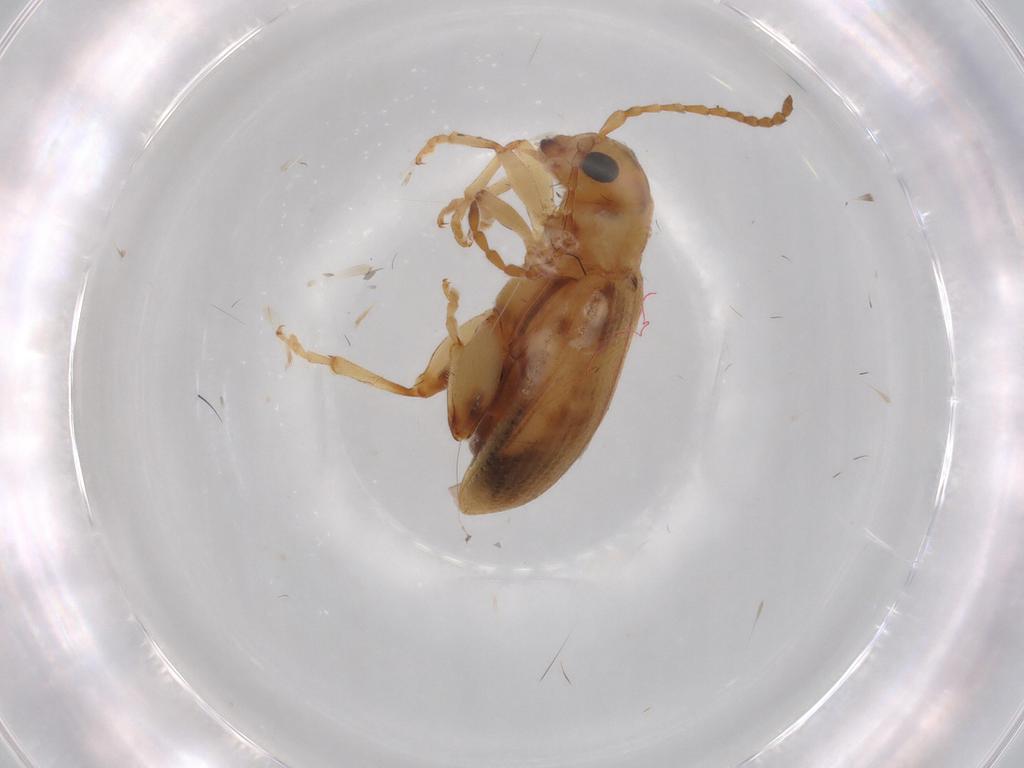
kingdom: Animalia
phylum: Arthropoda
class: Insecta
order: Coleoptera
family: Chrysomelidae
